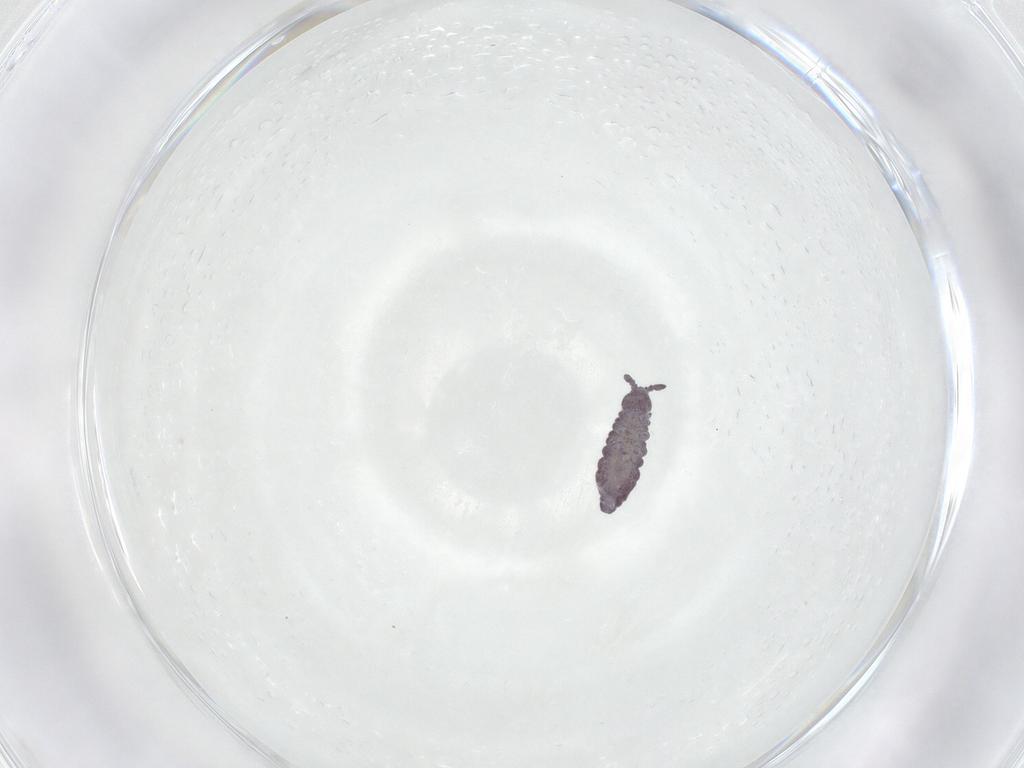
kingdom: Animalia
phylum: Arthropoda
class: Collembola
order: Poduromorpha
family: Hypogastruridae
